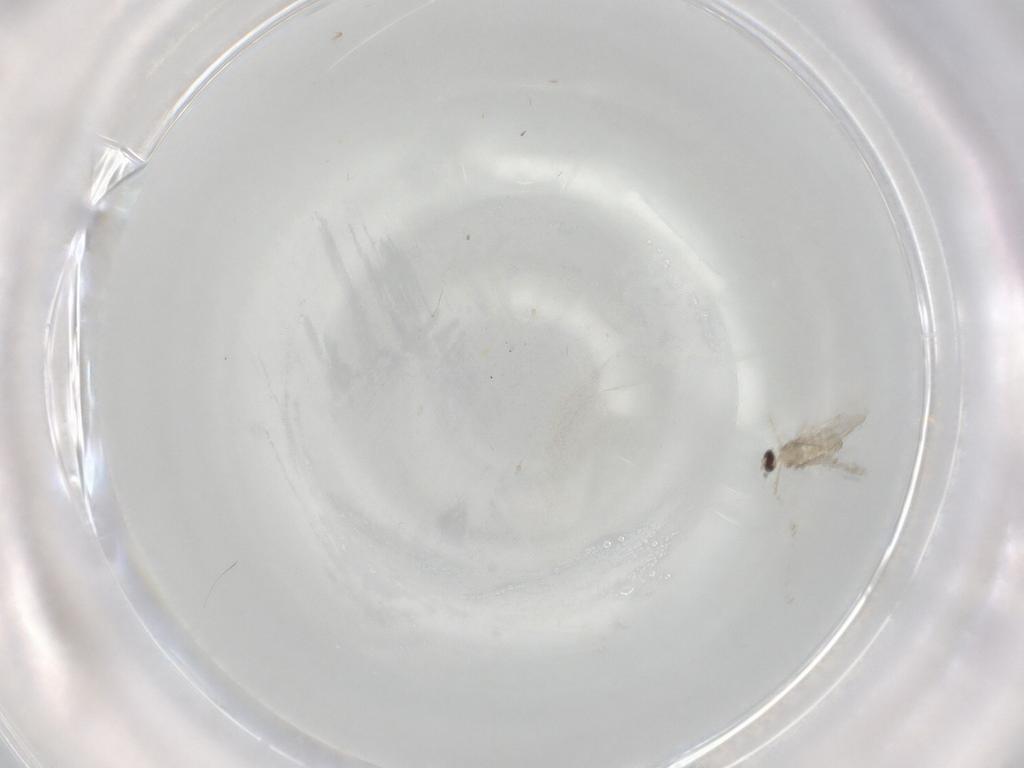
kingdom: Animalia
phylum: Arthropoda
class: Insecta
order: Diptera
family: Cecidomyiidae
